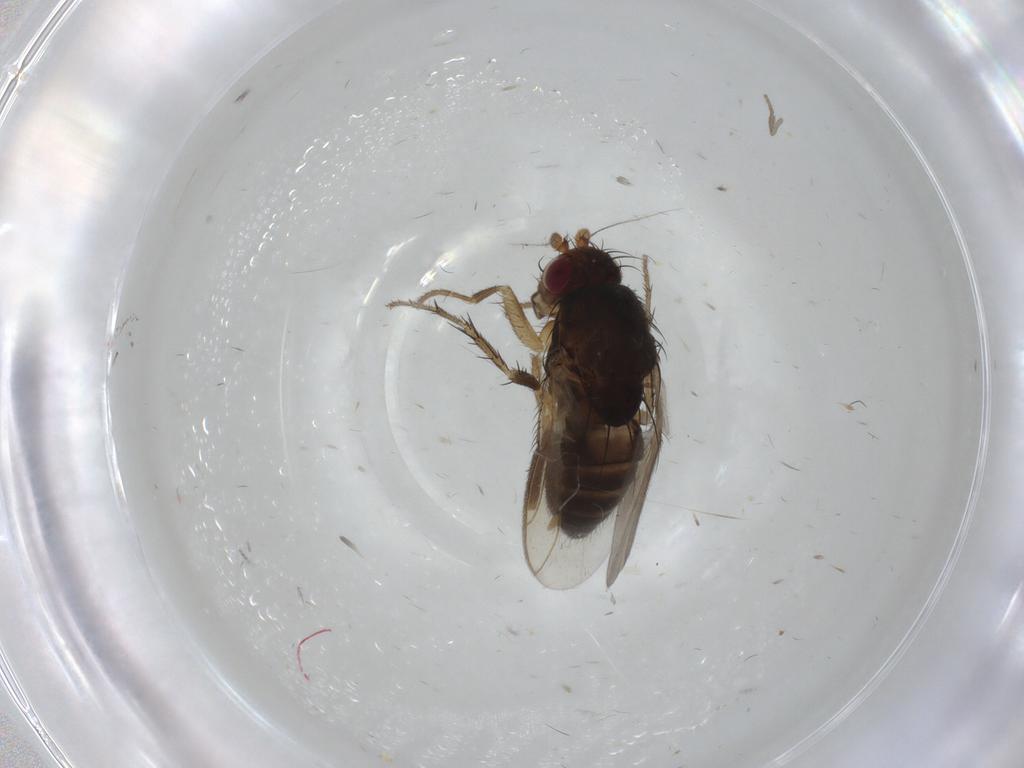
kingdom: Animalia
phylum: Arthropoda
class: Insecta
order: Diptera
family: Sphaeroceridae
